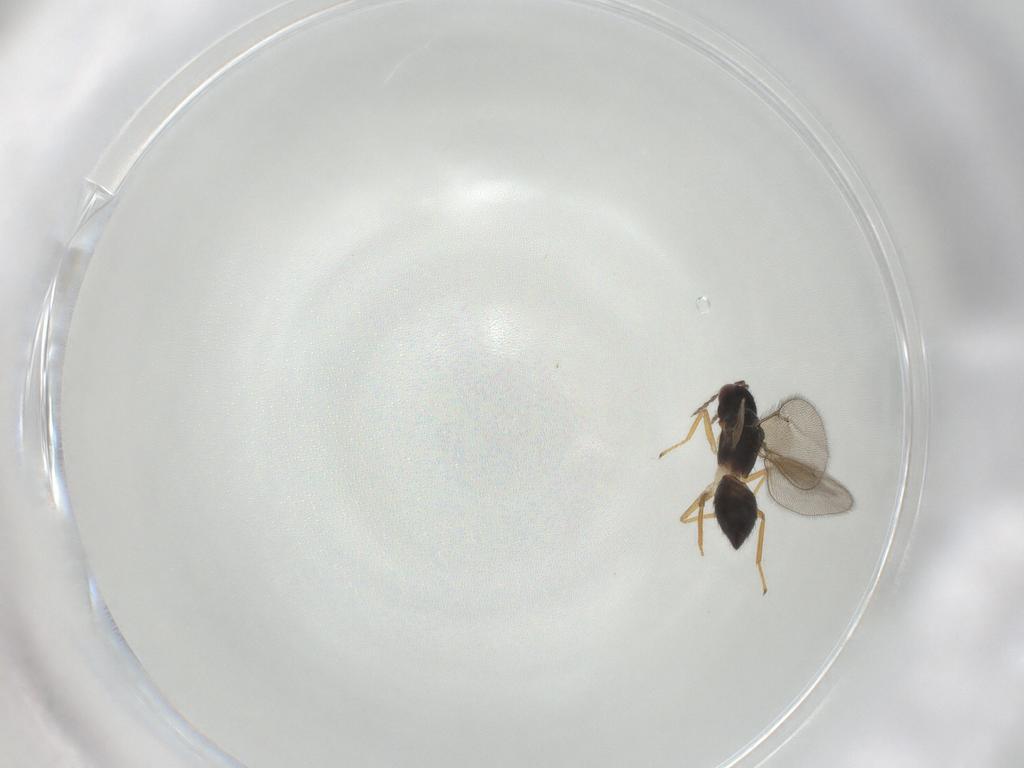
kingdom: Animalia
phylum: Arthropoda
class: Insecta
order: Hymenoptera
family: Eulophidae
